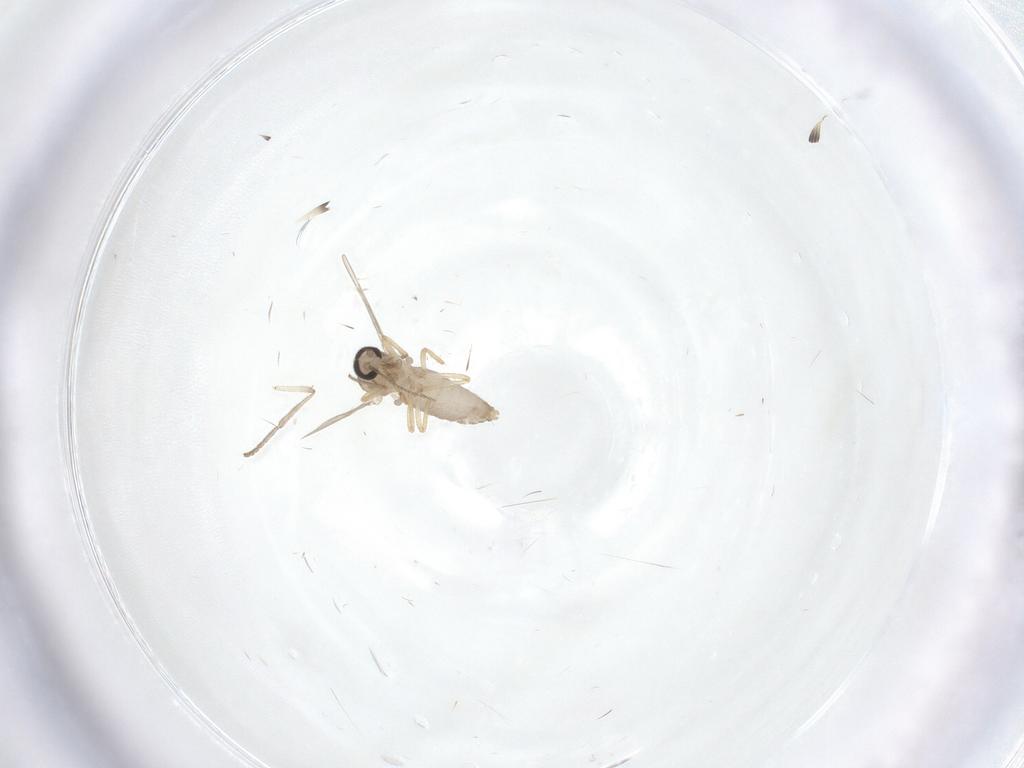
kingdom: Animalia
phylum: Arthropoda
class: Insecta
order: Diptera
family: Ceratopogonidae
